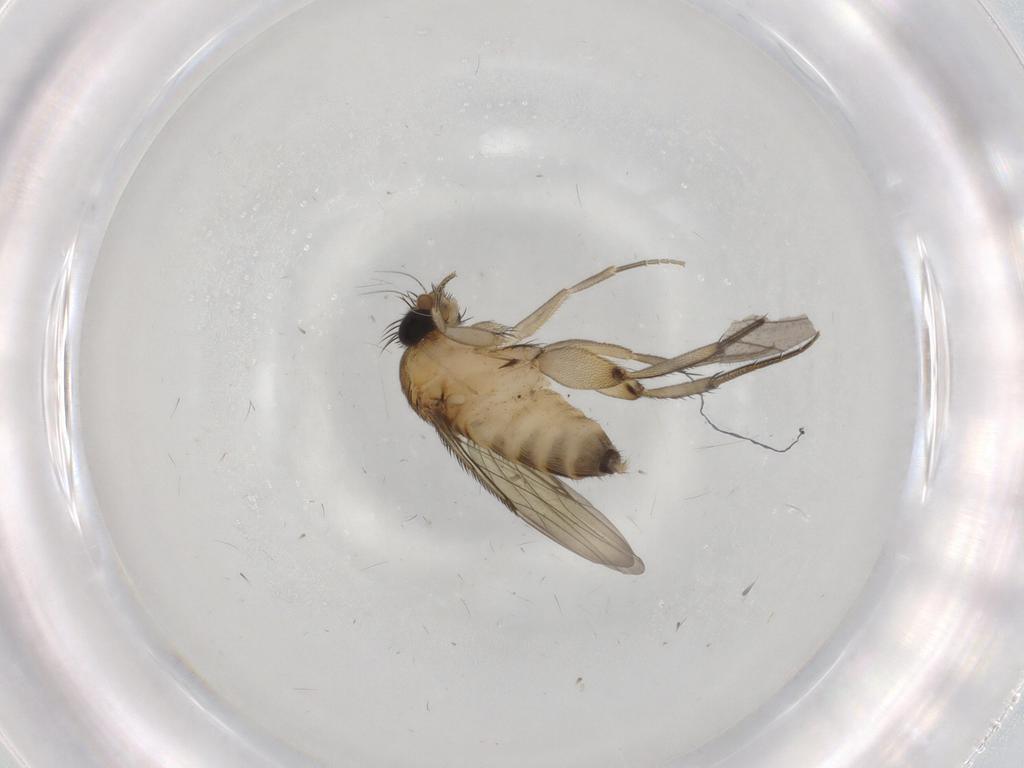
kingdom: Animalia
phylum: Arthropoda
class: Insecta
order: Diptera
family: Phoridae
